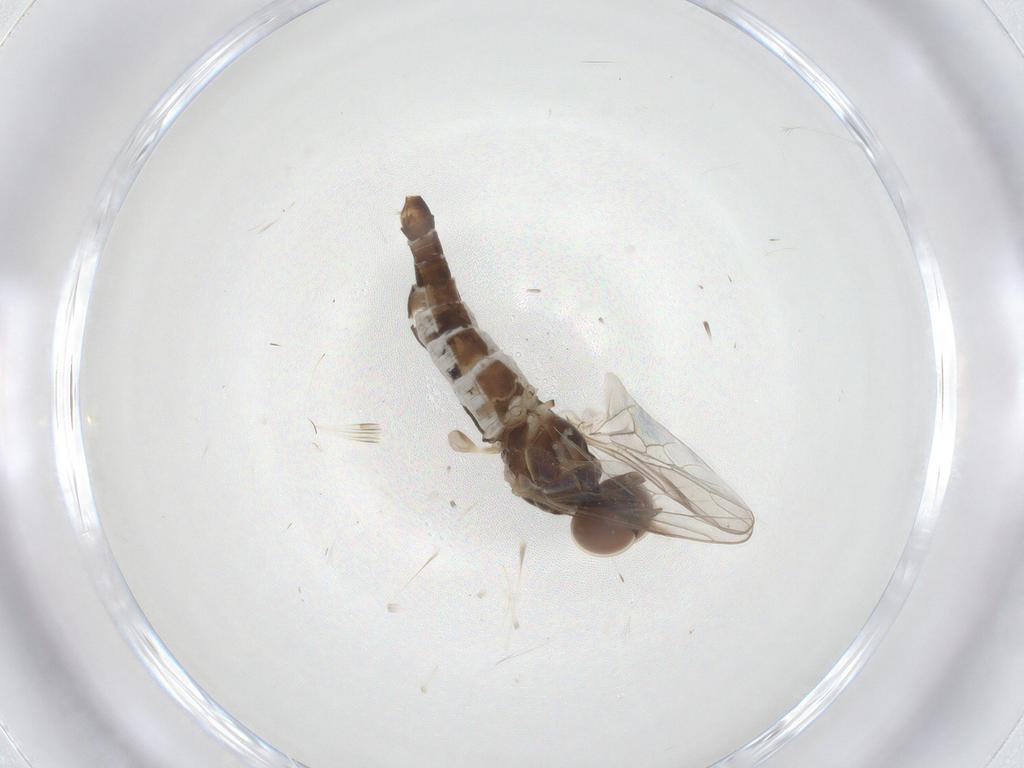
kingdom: Animalia
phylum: Arthropoda
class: Insecta
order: Diptera
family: Scenopinidae
